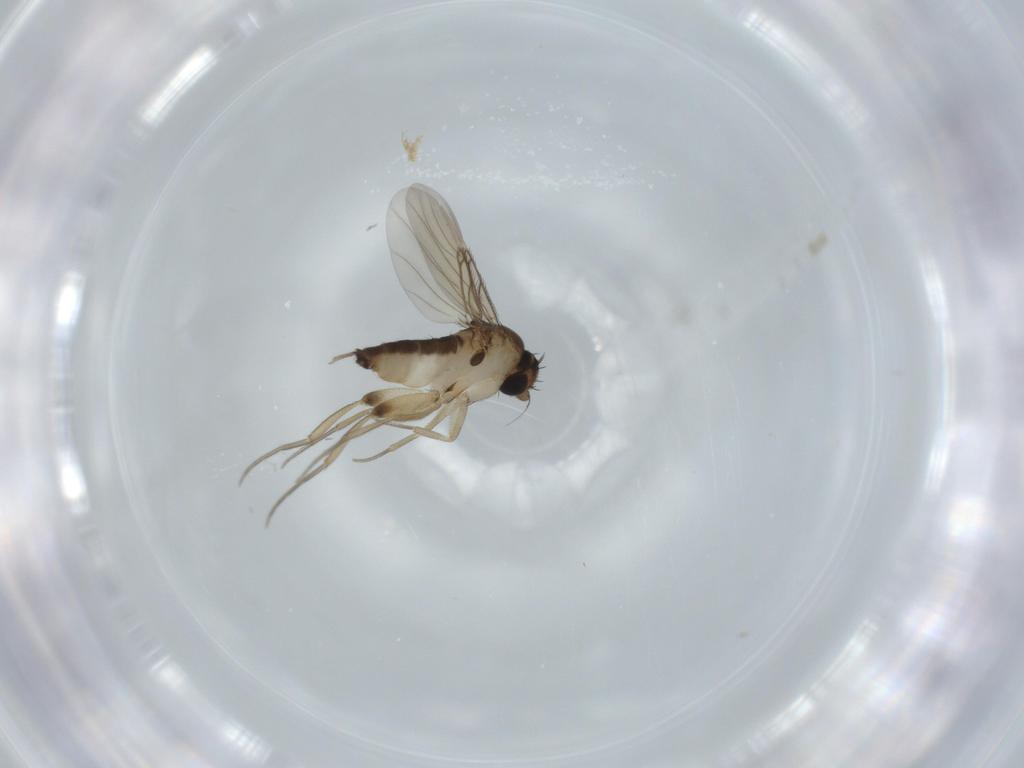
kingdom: Animalia
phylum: Arthropoda
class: Insecta
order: Diptera
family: Phoridae
